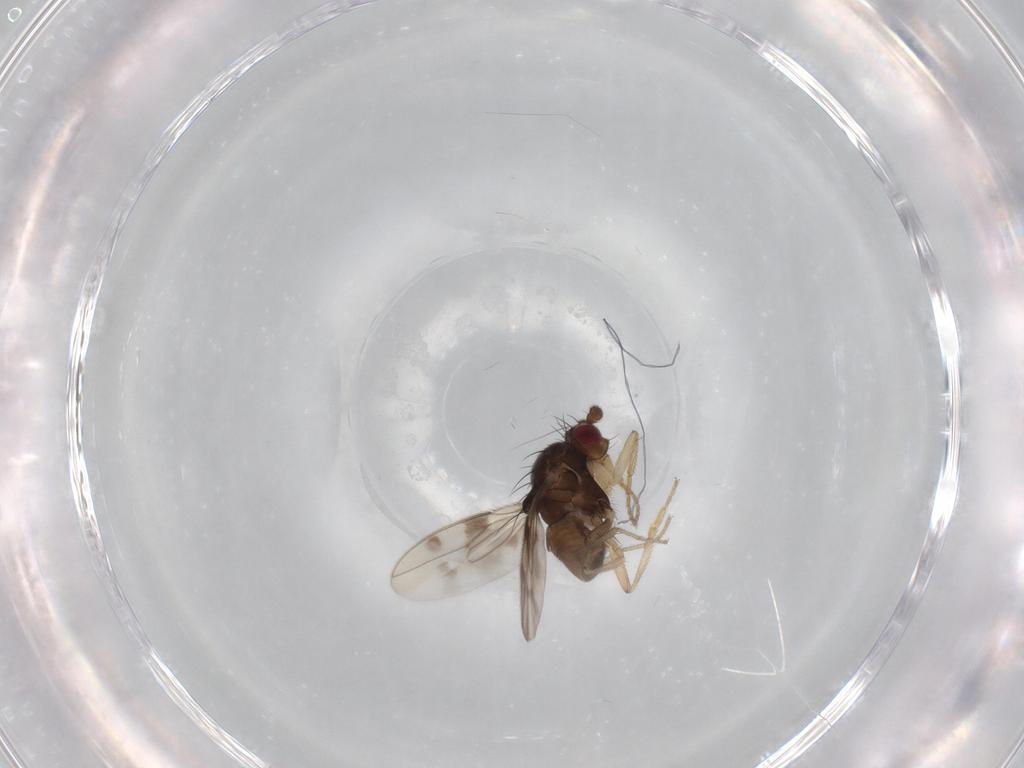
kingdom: Animalia
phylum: Arthropoda
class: Insecta
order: Diptera
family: Sphaeroceridae
